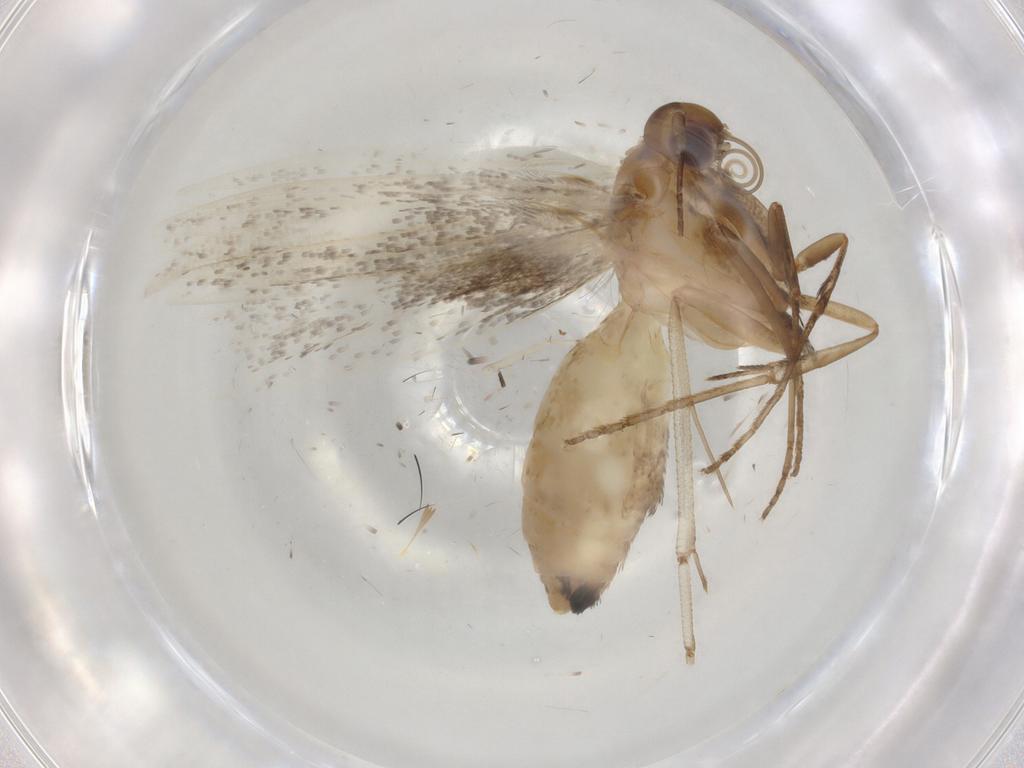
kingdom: Animalia
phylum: Arthropoda
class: Insecta
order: Lepidoptera
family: Epermeniidae
